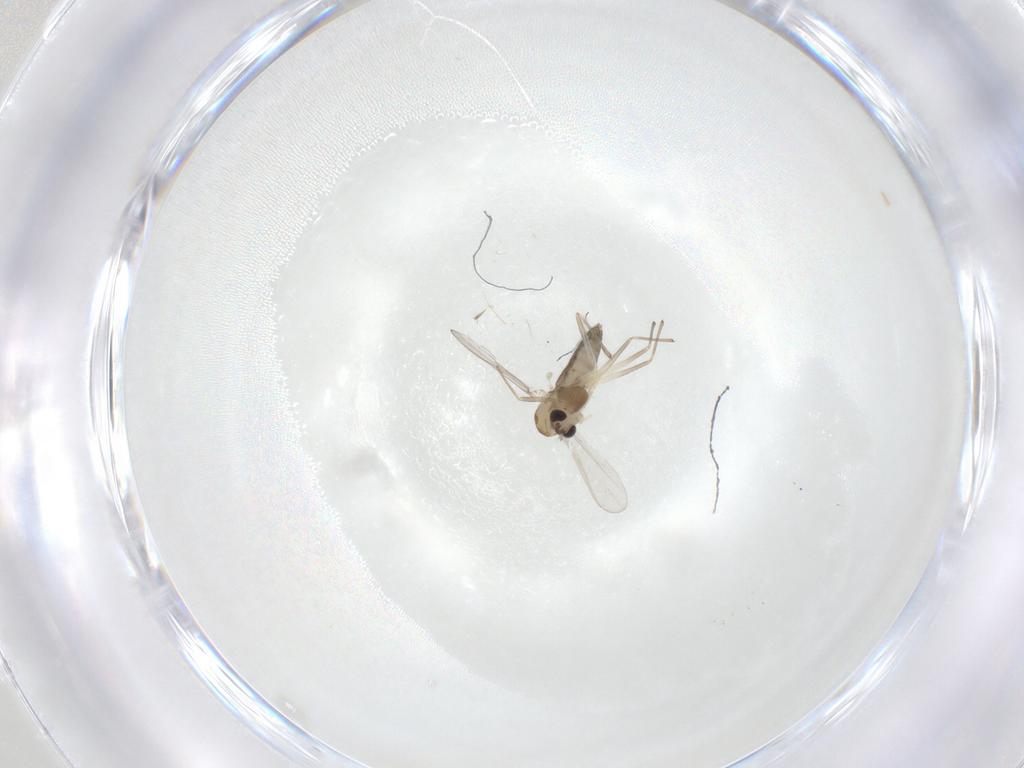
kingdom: Animalia
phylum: Arthropoda
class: Insecta
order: Diptera
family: Chironomidae
